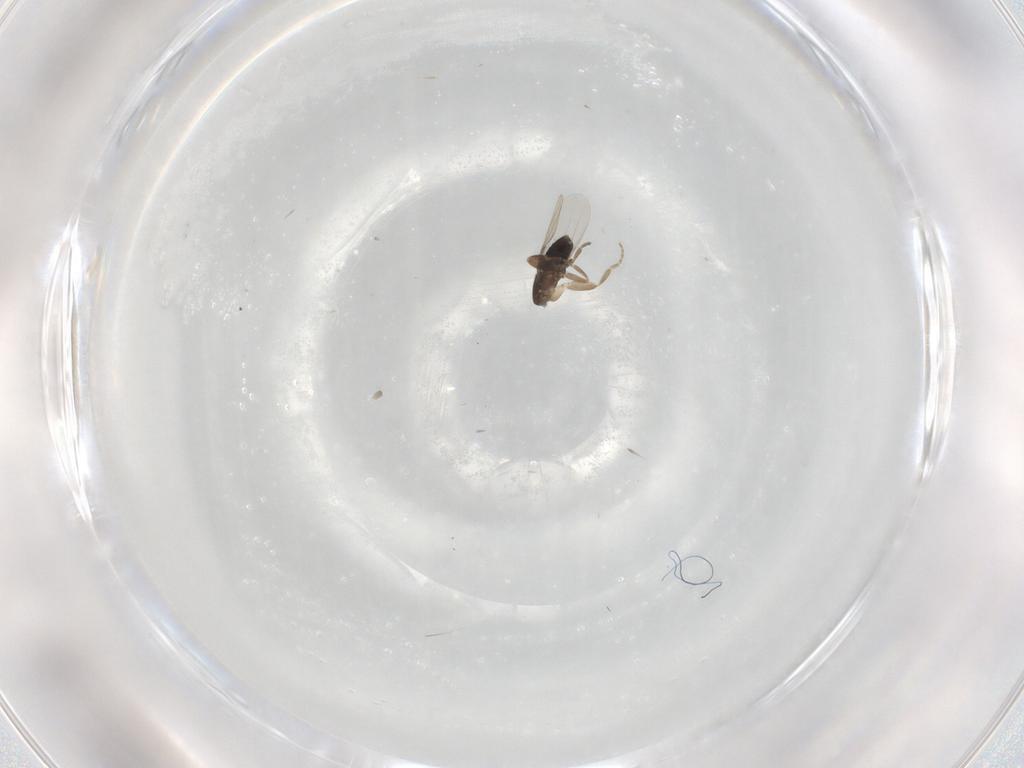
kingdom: Animalia
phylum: Arthropoda
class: Insecta
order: Diptera
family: Phoridae
